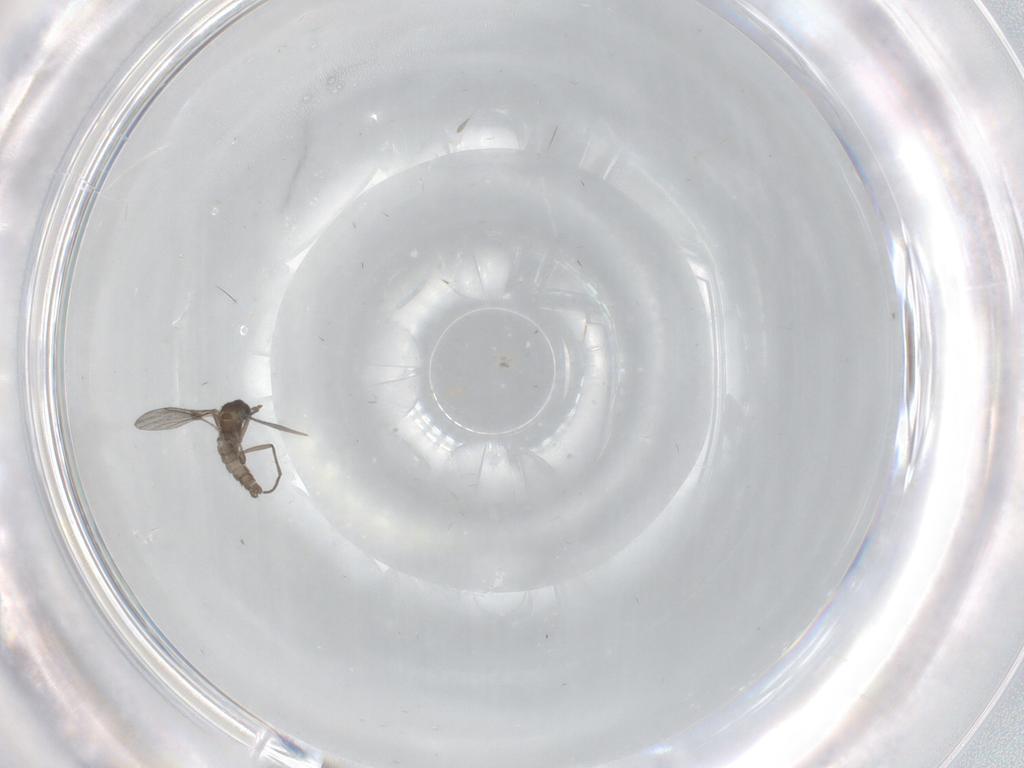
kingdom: Animalia
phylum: Arthropoda
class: Insecta
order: Diptera
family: Sciaridae
